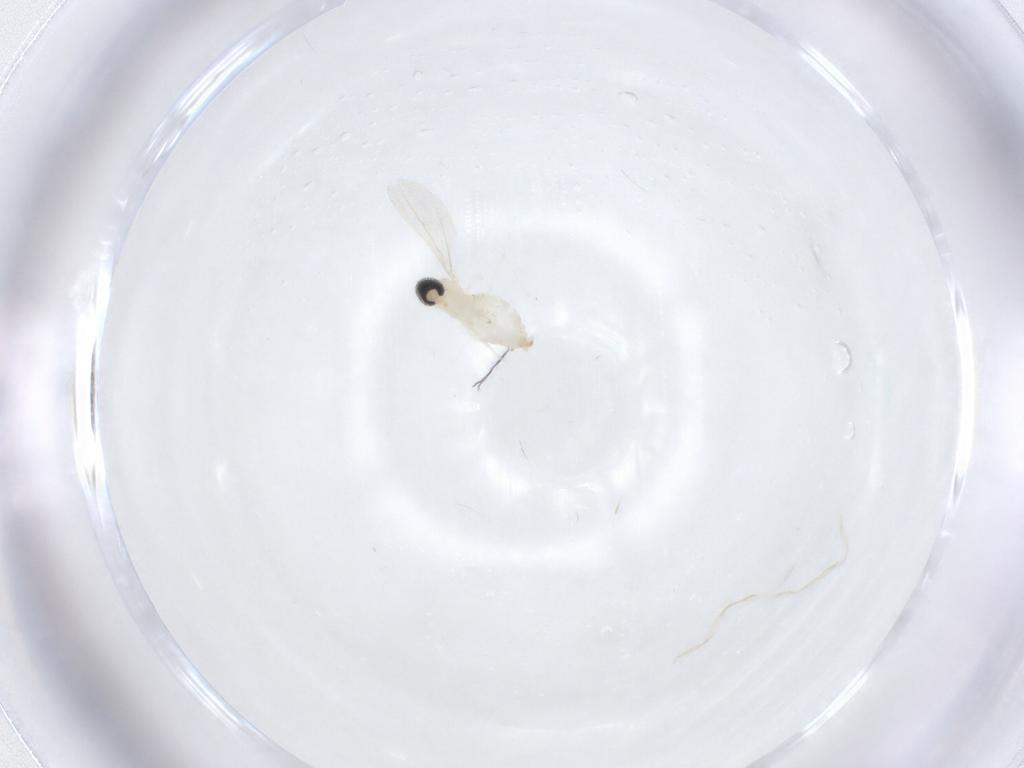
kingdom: Animalia
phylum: Arthropoda
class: Insecta
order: Diptera
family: Cecidomyiidae
